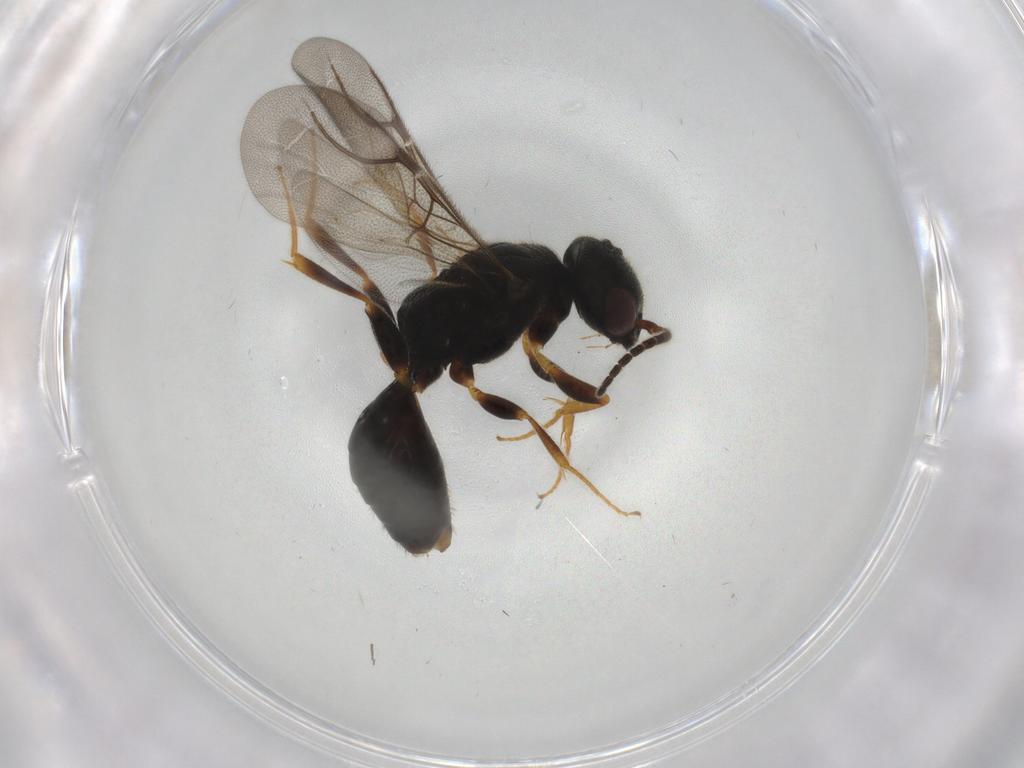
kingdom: Animalia
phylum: Arthropoda
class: Insecta
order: Hymenoptera
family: Bethylidae
